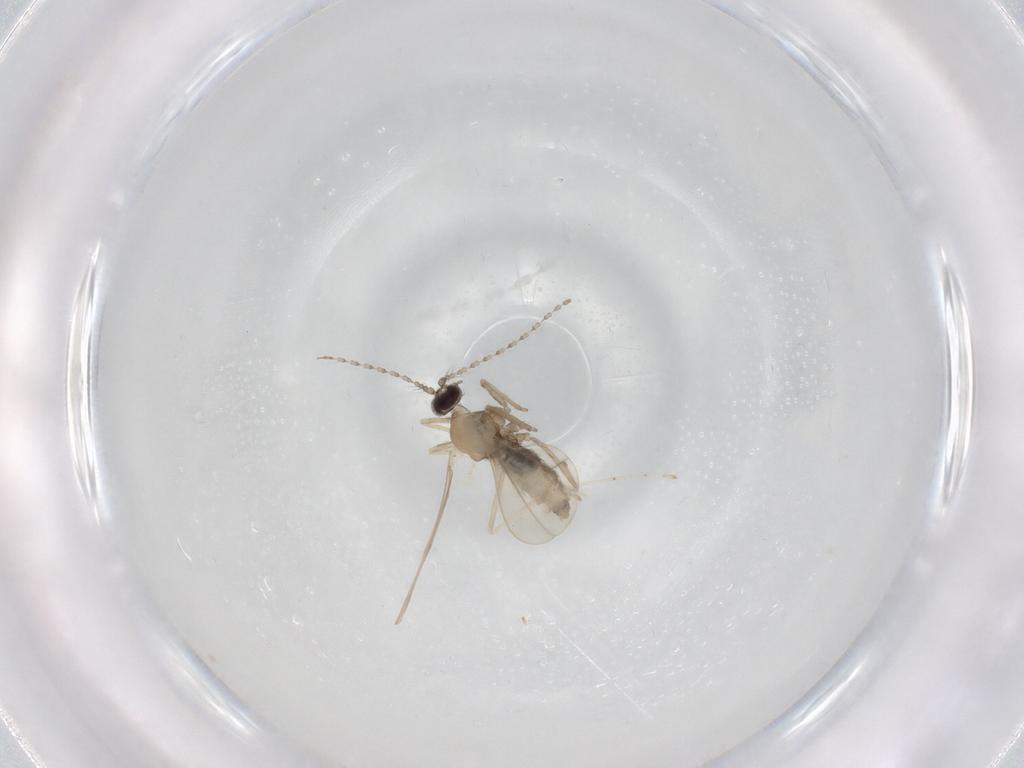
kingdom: Animalia
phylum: Arthropoda
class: Insecta
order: Diptera
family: Cecidomyiidae
